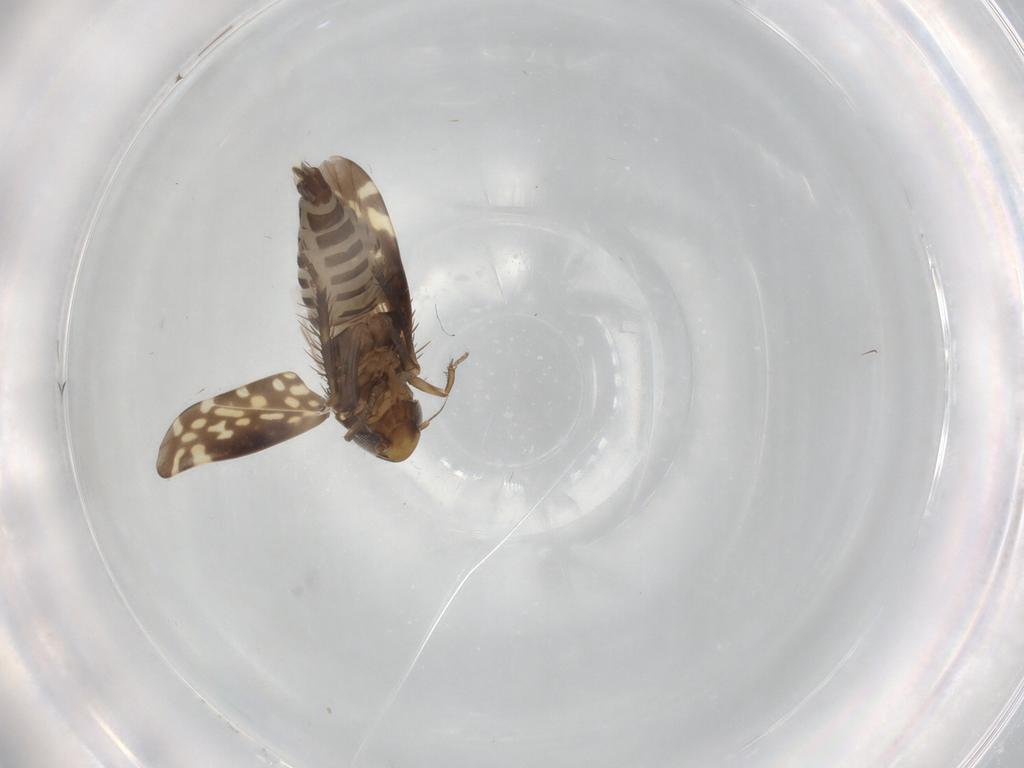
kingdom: Animalia
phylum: Arthropoda
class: Insecta
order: Hemiptera
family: Cicadellidae
